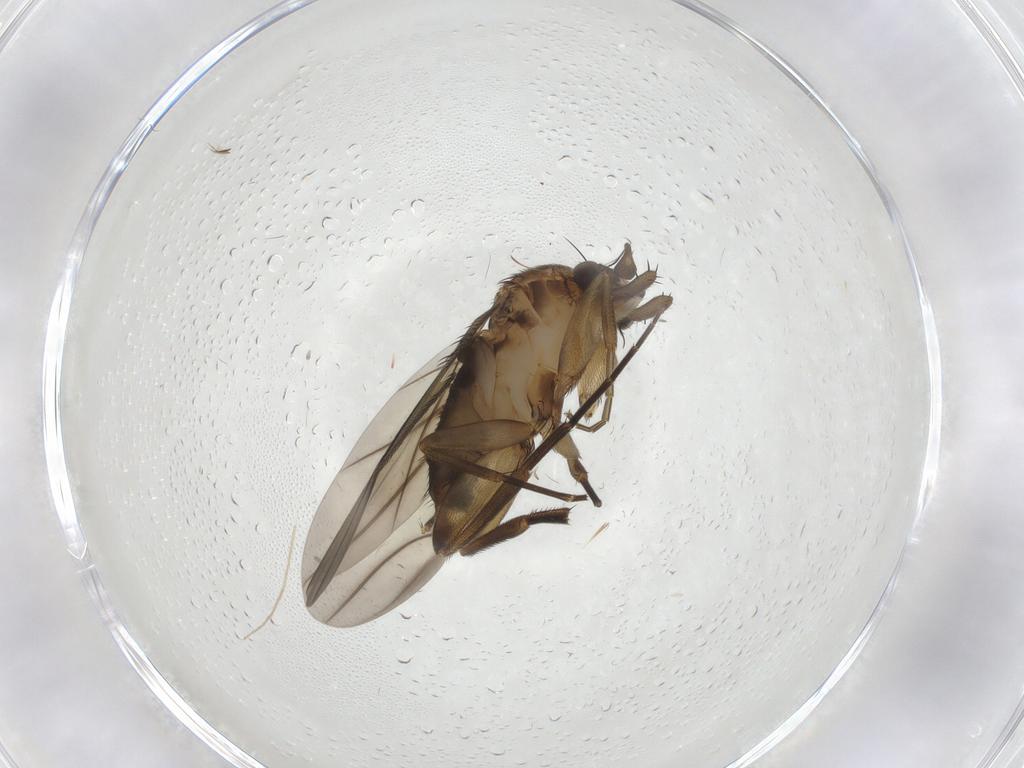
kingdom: Animalia
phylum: Arthropoda
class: Insecta
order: Diptera
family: Chironomidae
